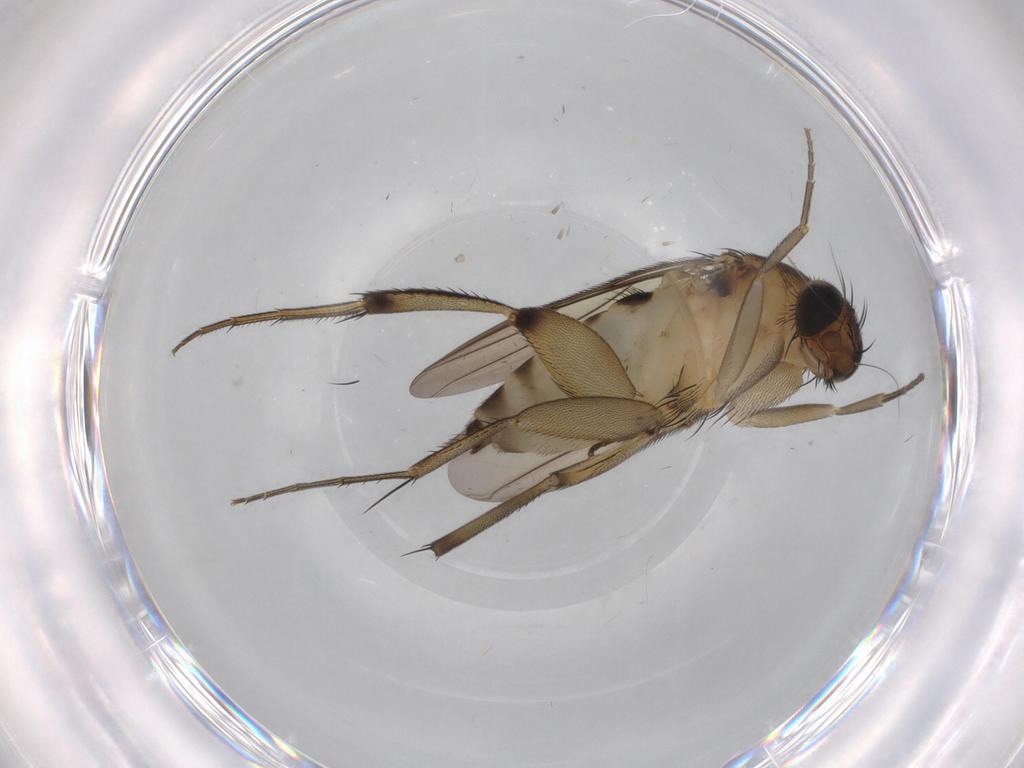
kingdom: Animalia
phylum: Arthropoda
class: Insecta
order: Diptera
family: Phoridae
